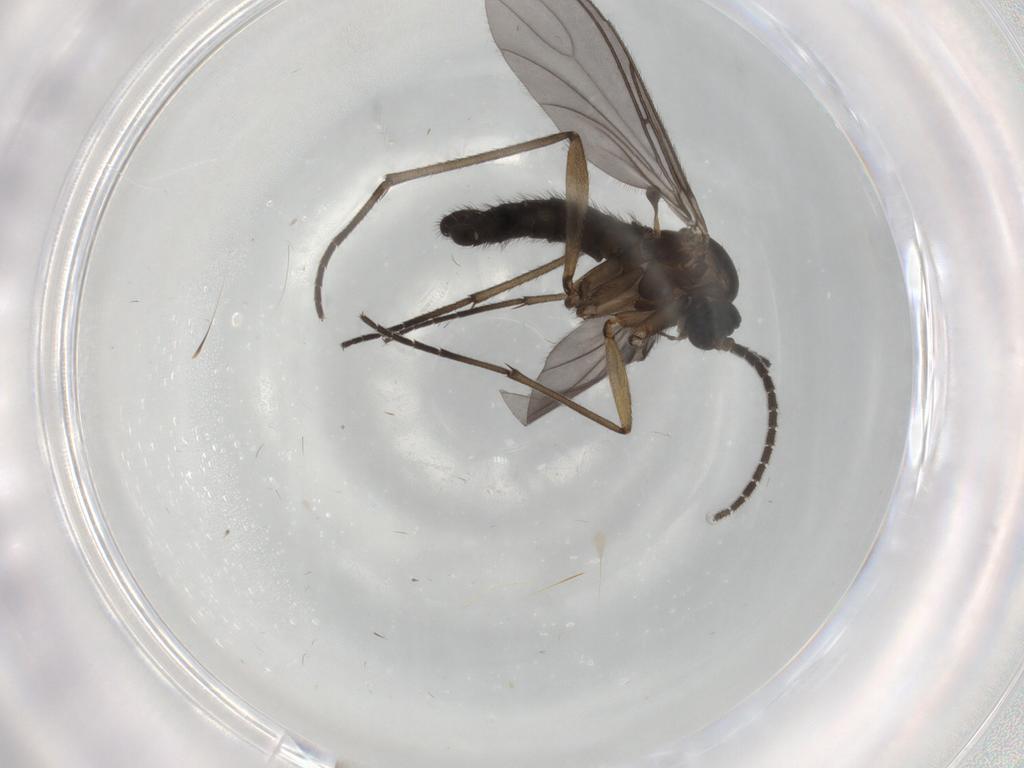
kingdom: Animalia
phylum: Arthropoda
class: Insecta
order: Diptera
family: Sciaridae
